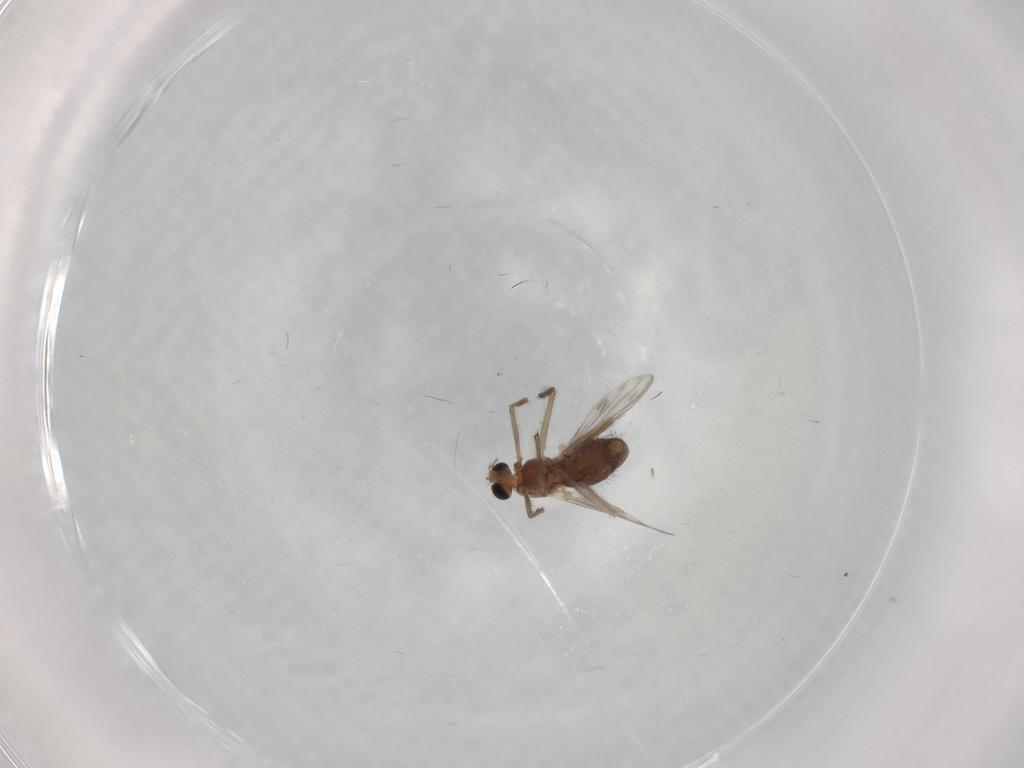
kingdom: Animalia
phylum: Arthropoda
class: Insecta
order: Diptera
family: Chironomidae
